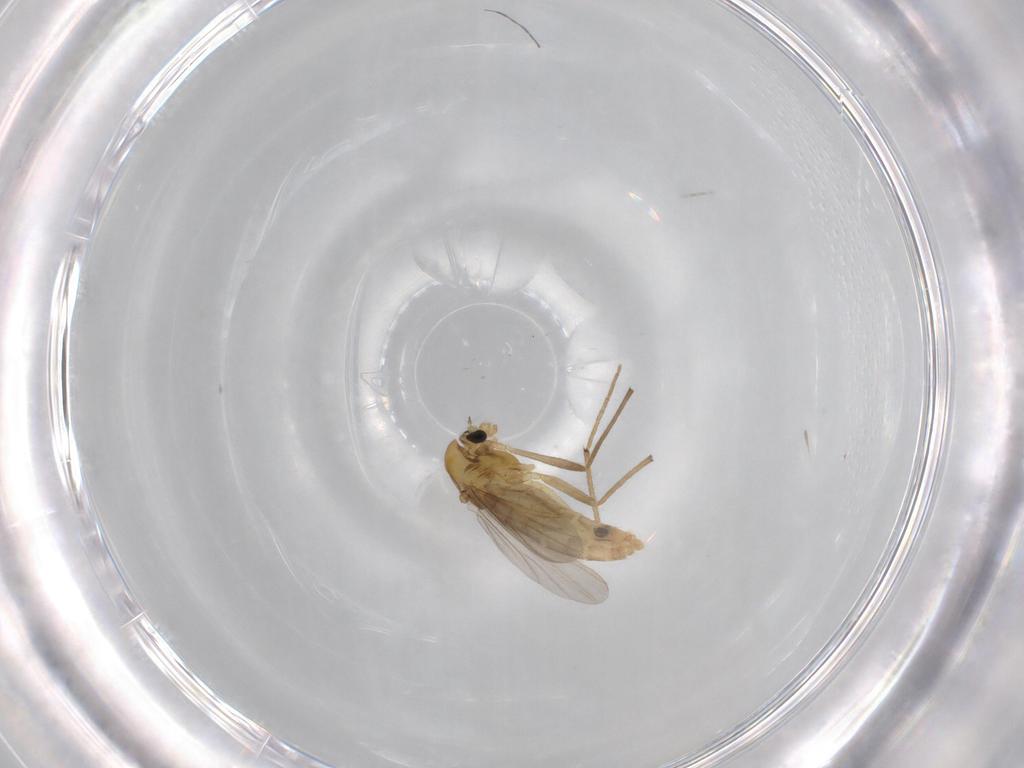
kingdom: Animalia
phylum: Arthropoda
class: Insecta
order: Diptera
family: Chironomidae
